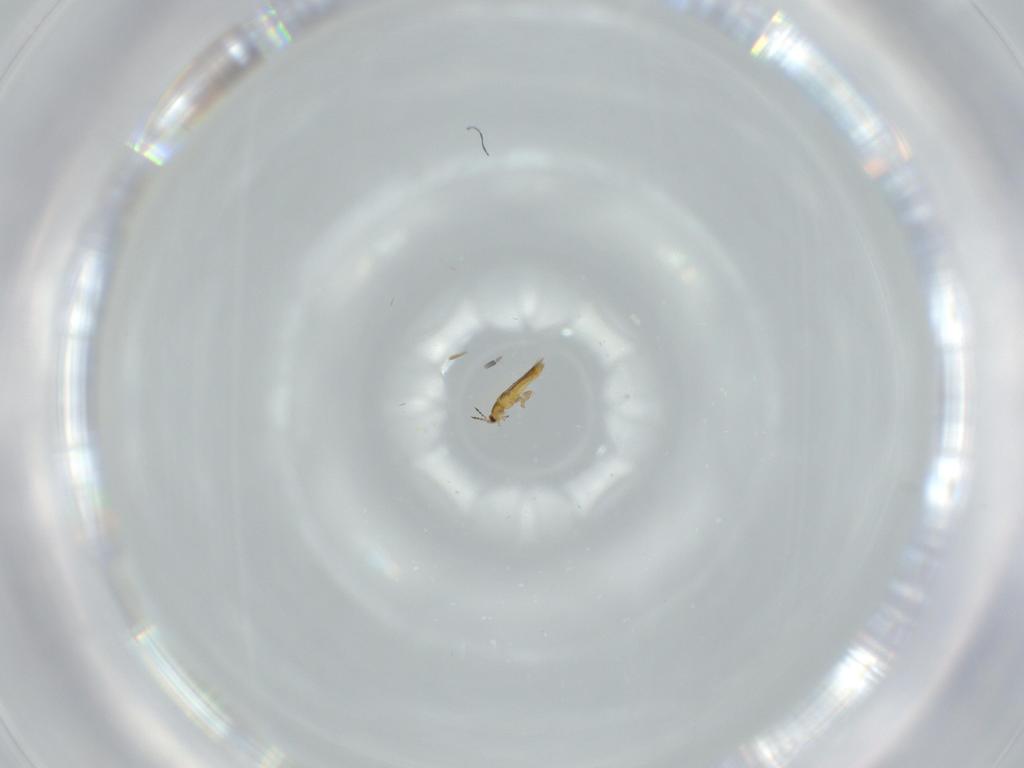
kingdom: Animalia
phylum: Arthropoda
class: Insecta
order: Thysanoptera
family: Thripidae
